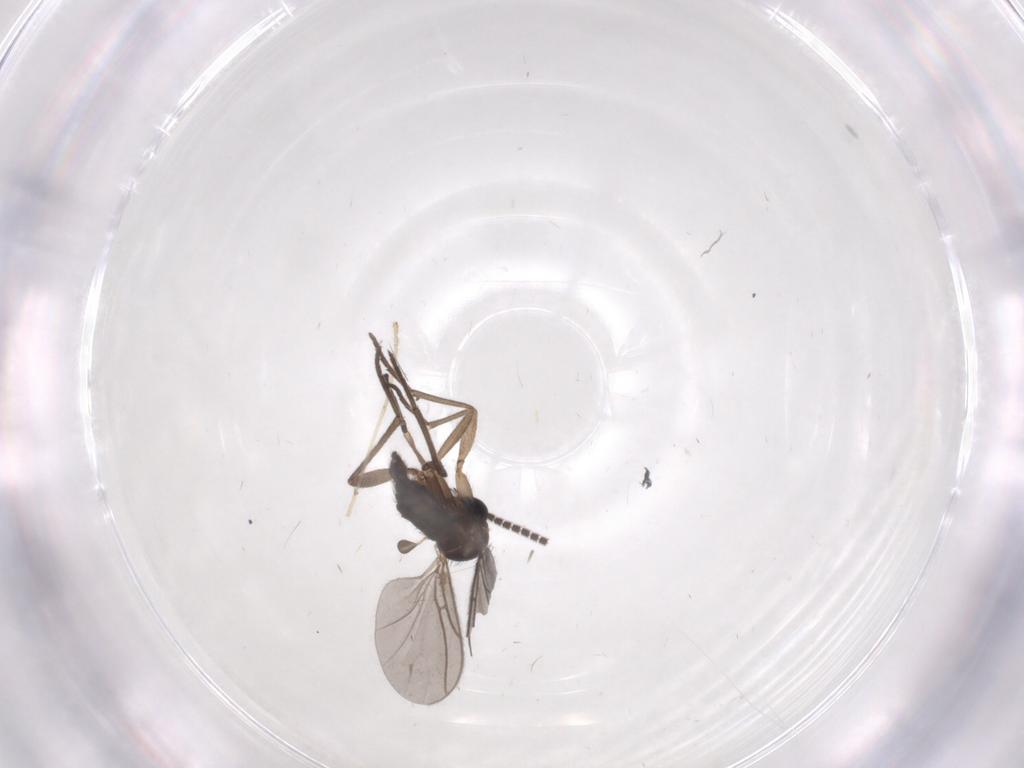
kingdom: Animalia
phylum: Arthropoda
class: Insecta
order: Diptera
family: Sciaridae
